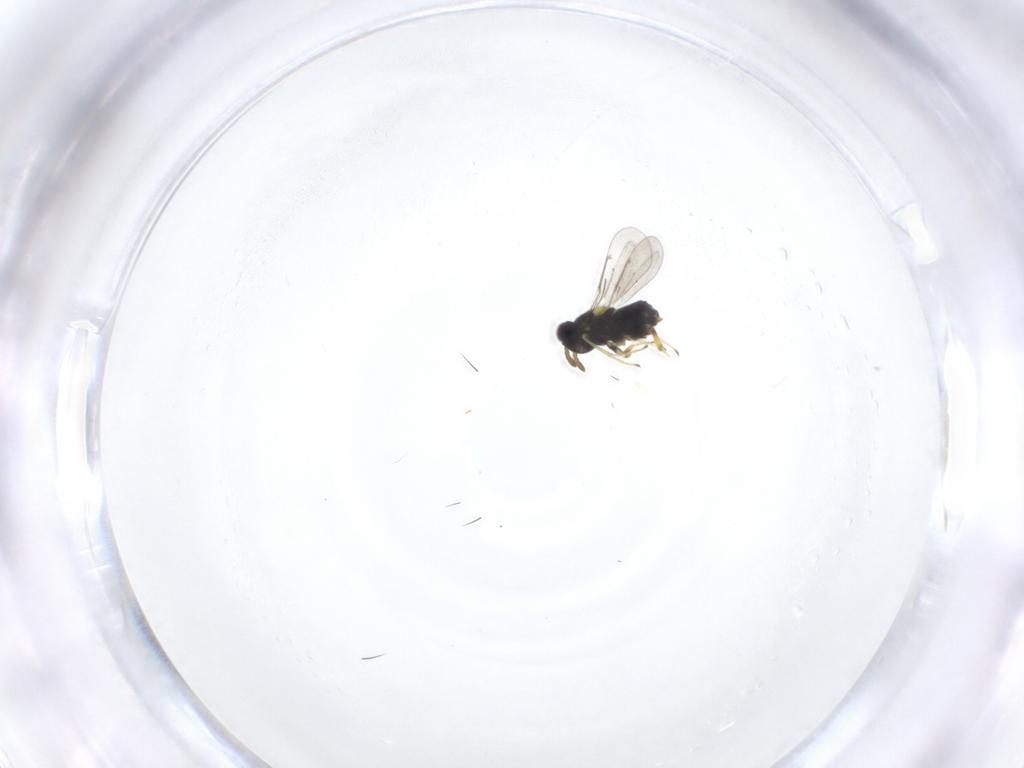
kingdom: Animalia
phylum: Arthropoda
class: Insecta
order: Hymenoptera
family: Aphelinidae
